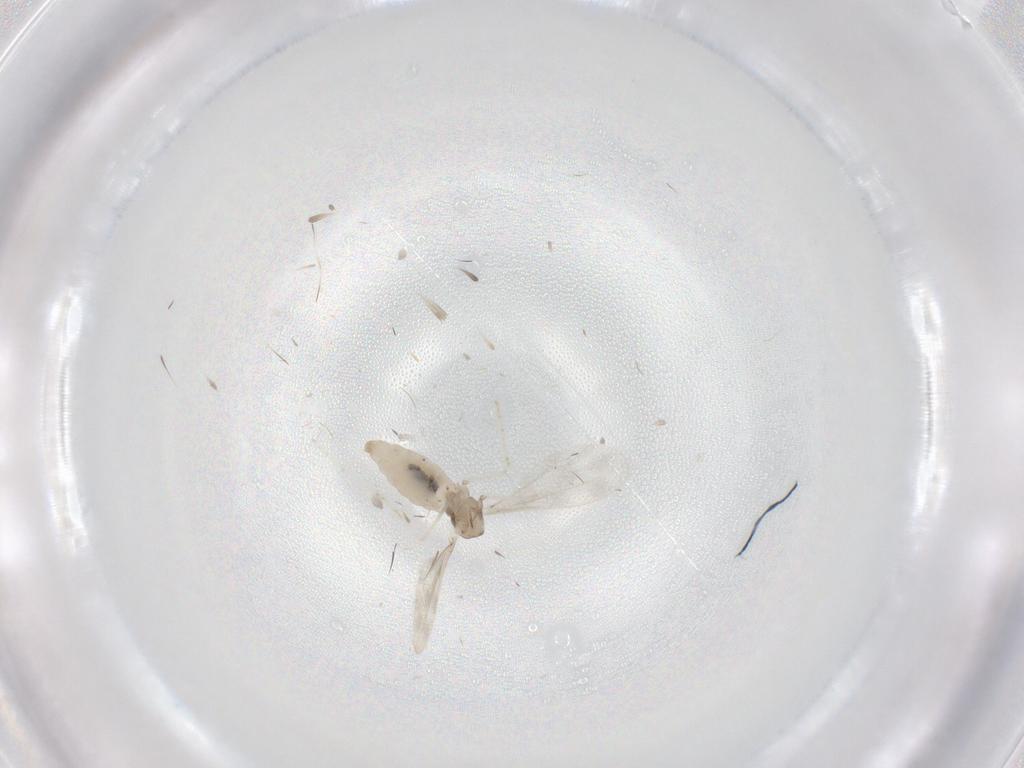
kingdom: Animalia
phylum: Arthropoda
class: Insecta
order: Diptera
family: Cecidomyiidae
